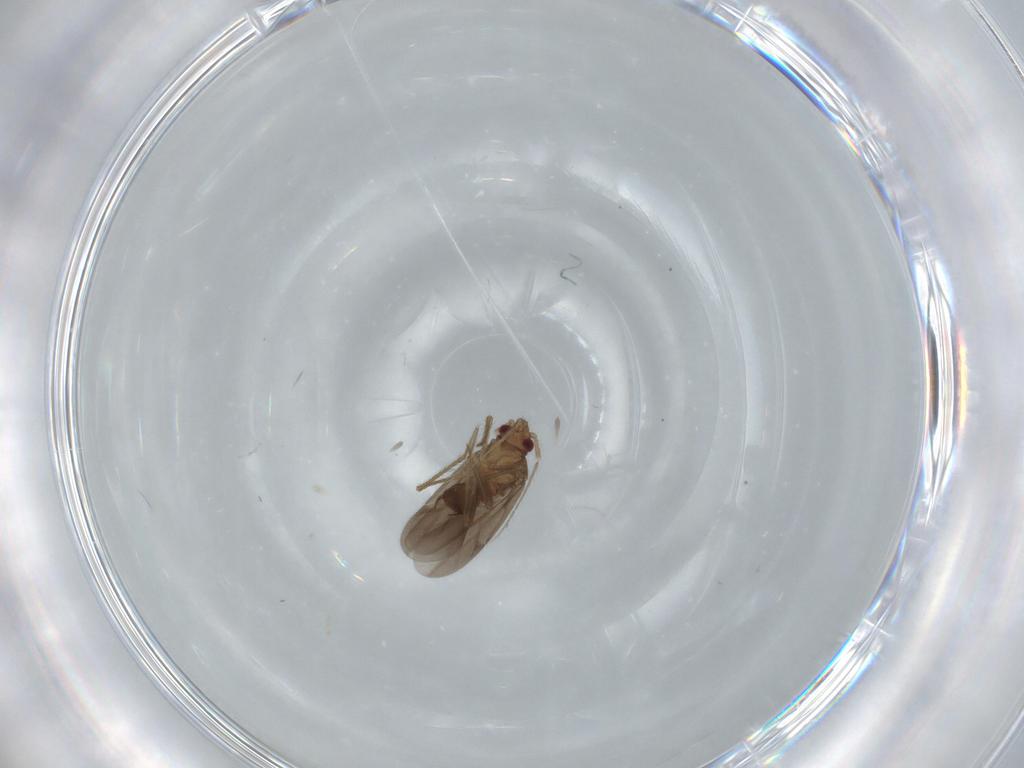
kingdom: Animalia
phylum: Arthropoda
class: Insecta
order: Hemiptera
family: Ceratocombidae
